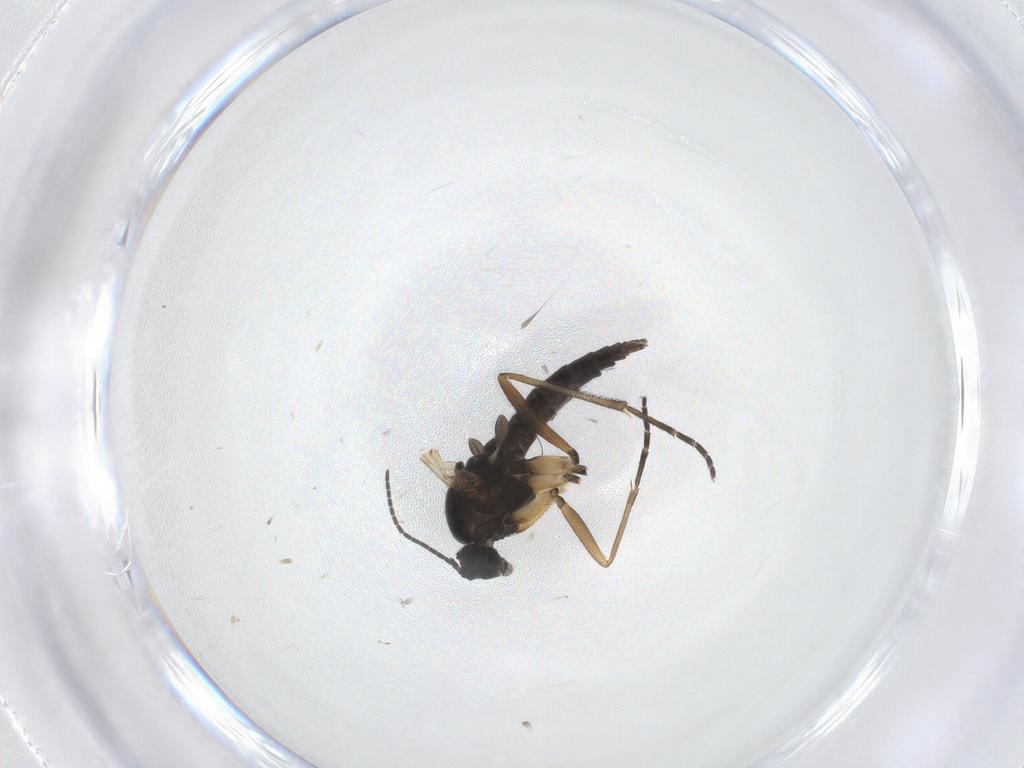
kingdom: Animalia
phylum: Arthropoda
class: Insecta
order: Diptera
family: Sciaridae
